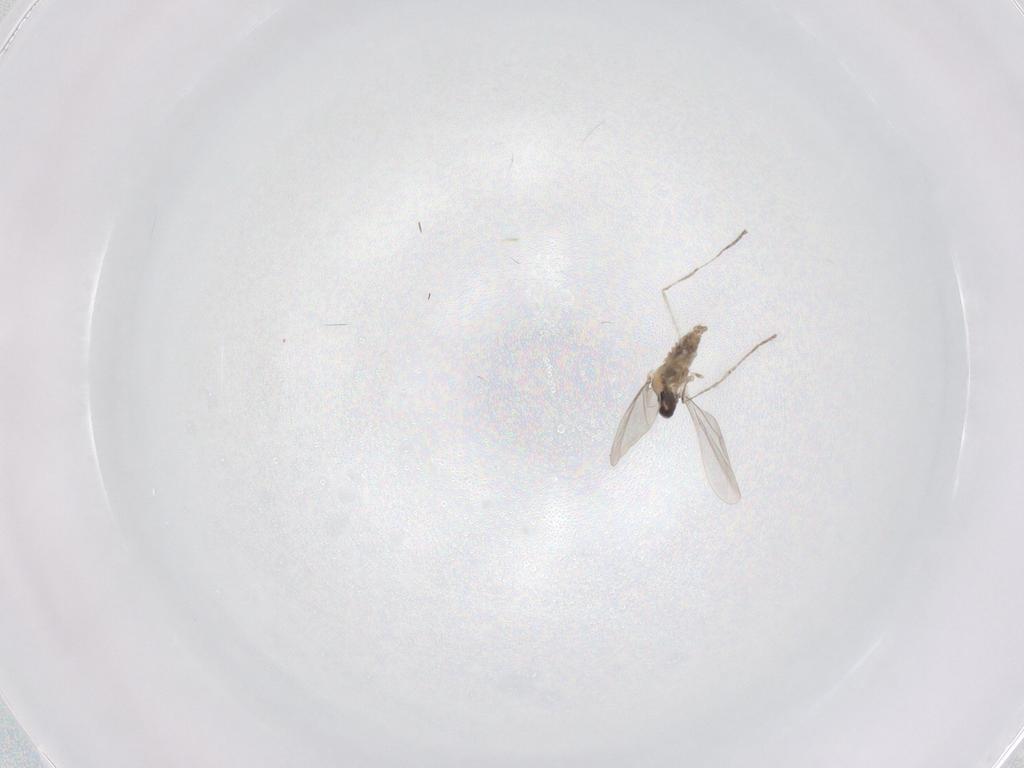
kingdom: Animalia
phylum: Arthropoda
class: Insecta
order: Diptera
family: Cecidomyiidae
